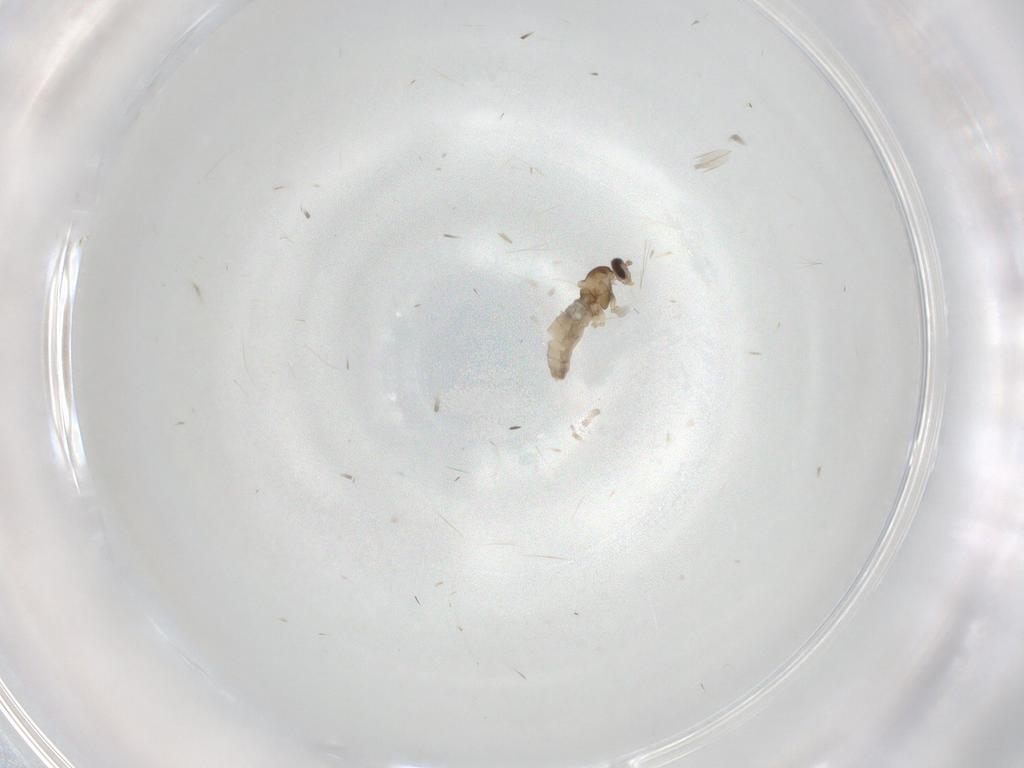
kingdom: Animalia
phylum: Arthropoda
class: Insecta
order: Diptera
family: Cecidomyiidae
